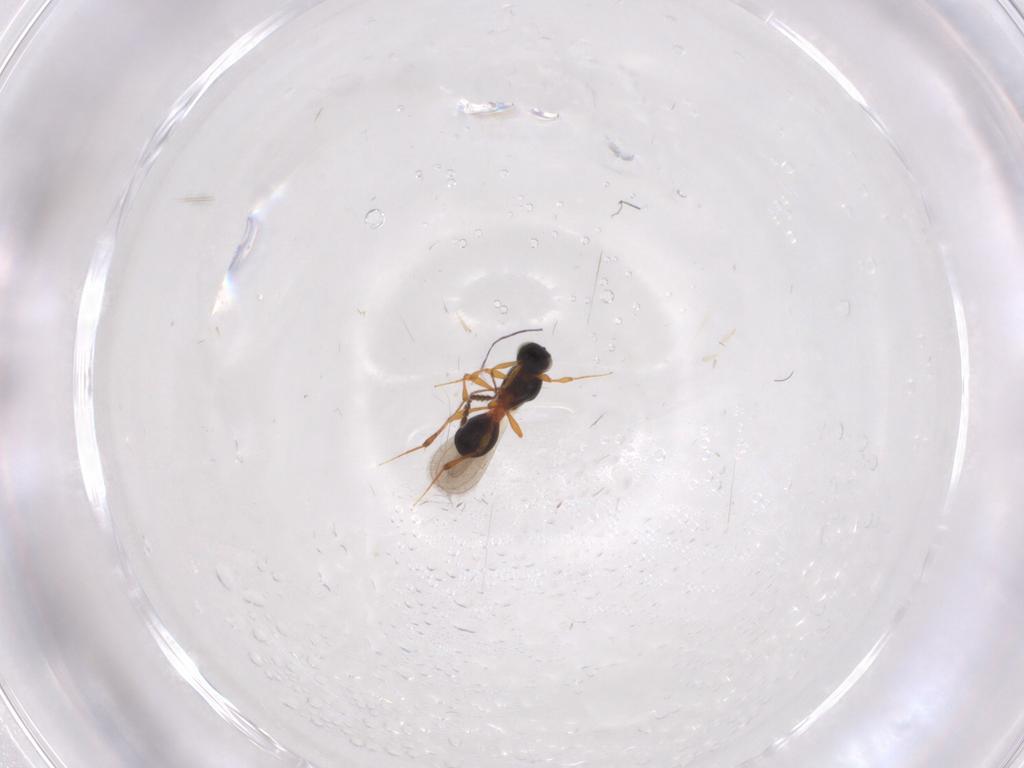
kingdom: Animalia
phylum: Arthropoda
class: Insecta
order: Hymenoptera
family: Platygastridae
